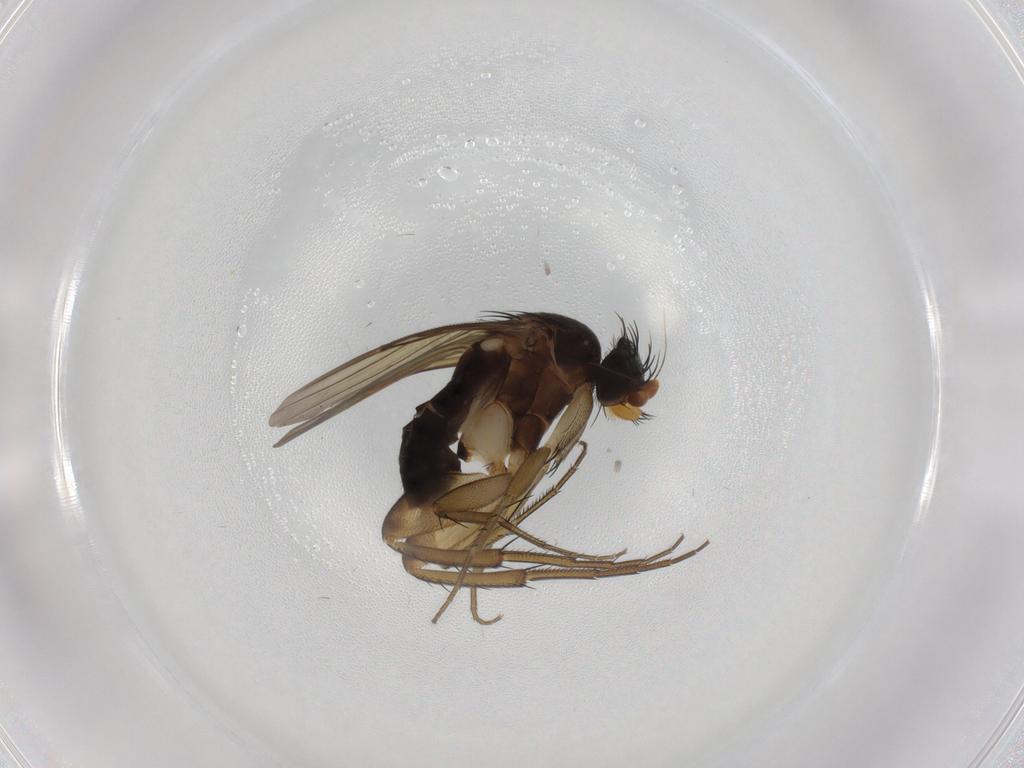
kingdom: Animalia
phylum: Arthropoda
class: Insecta
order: Diptera
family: Phoridae
